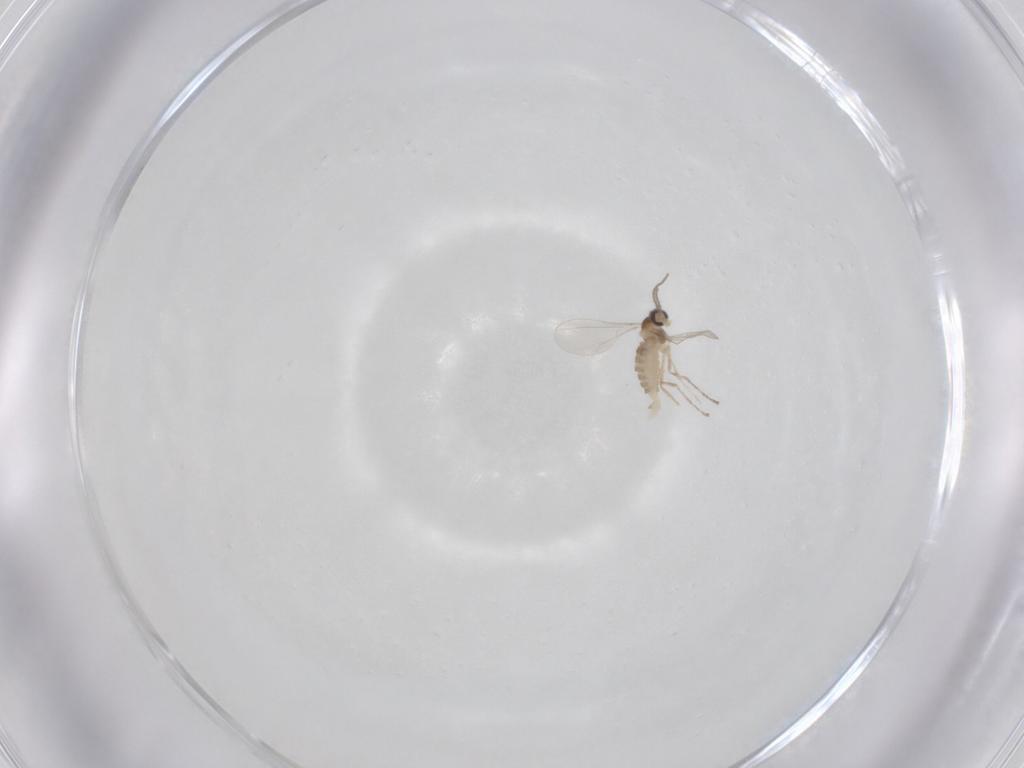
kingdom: Animalia
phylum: Arthropoda
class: Insecta
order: Diptera
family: Cecidomyiidae
